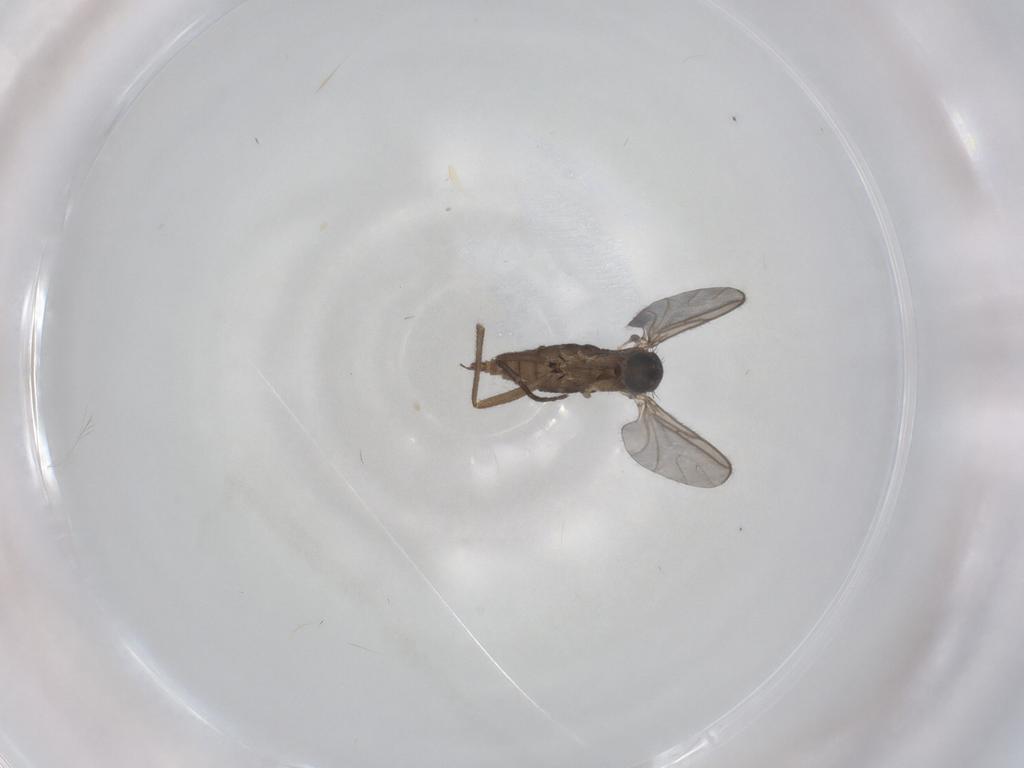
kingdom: Animalia
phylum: Arthropoda
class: Insecta
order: Diptera
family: Sciaridae
